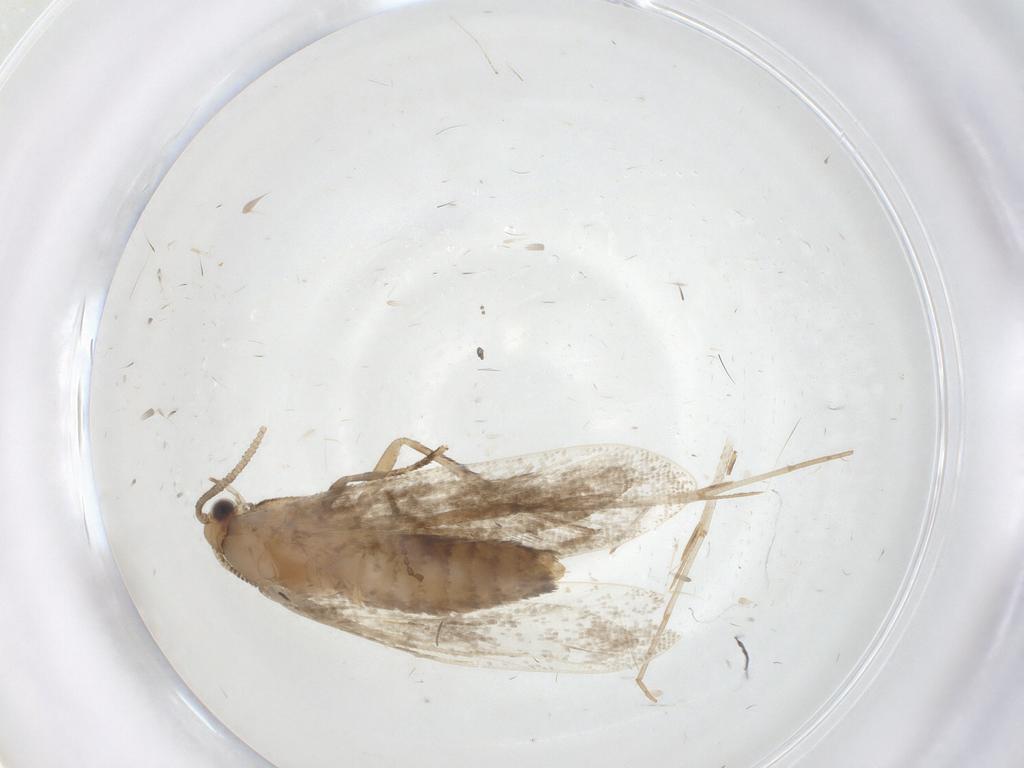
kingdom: Animalia
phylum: Arthropoda
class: Insecta
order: Lepidoptera
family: Tineidae
